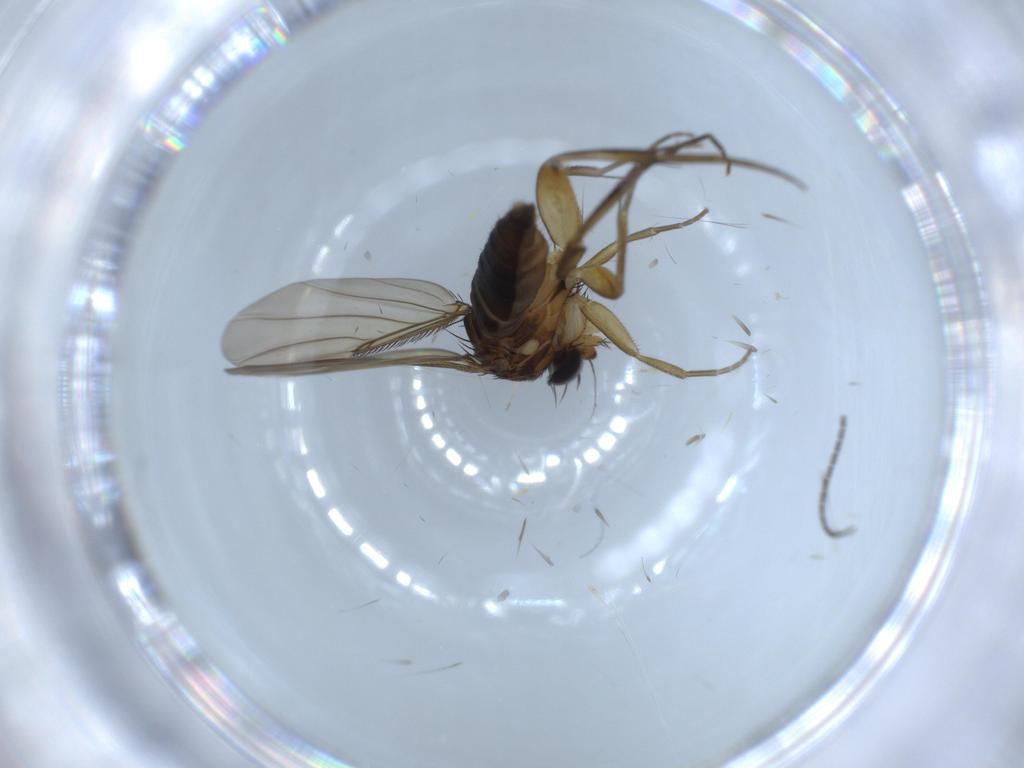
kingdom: Animalia
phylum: Arthropoda
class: Insecta
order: Diptera
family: Phoridae
